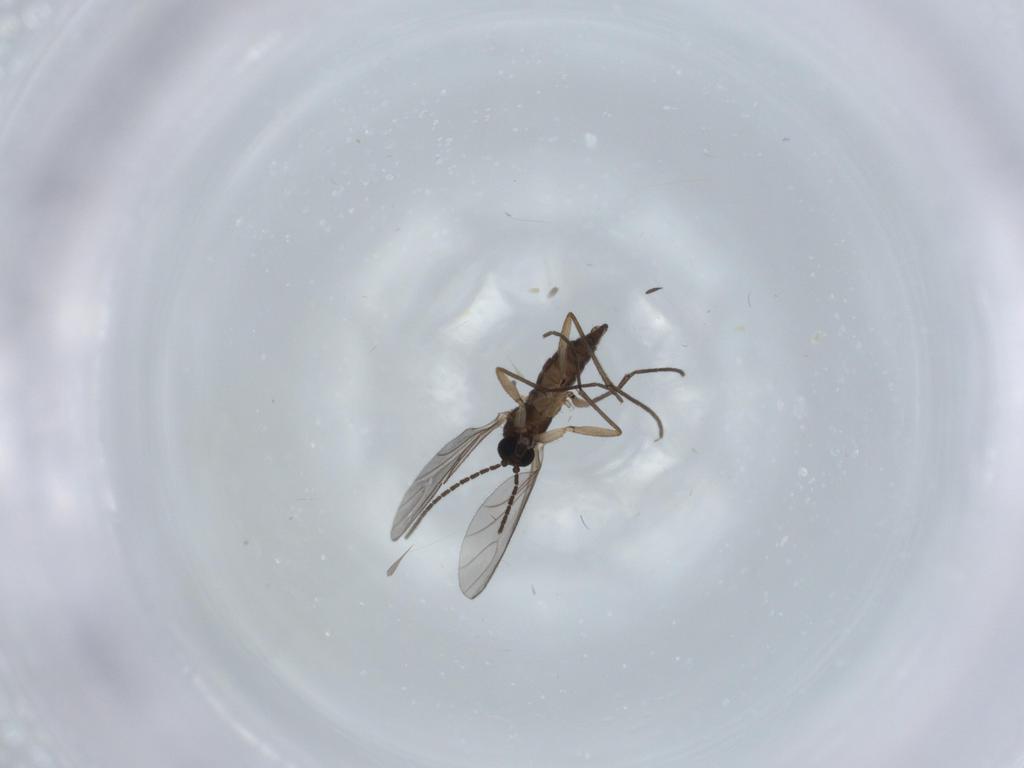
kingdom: Animalia
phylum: Arthropoda
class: Insecta
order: Diptera
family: Sciaridae
